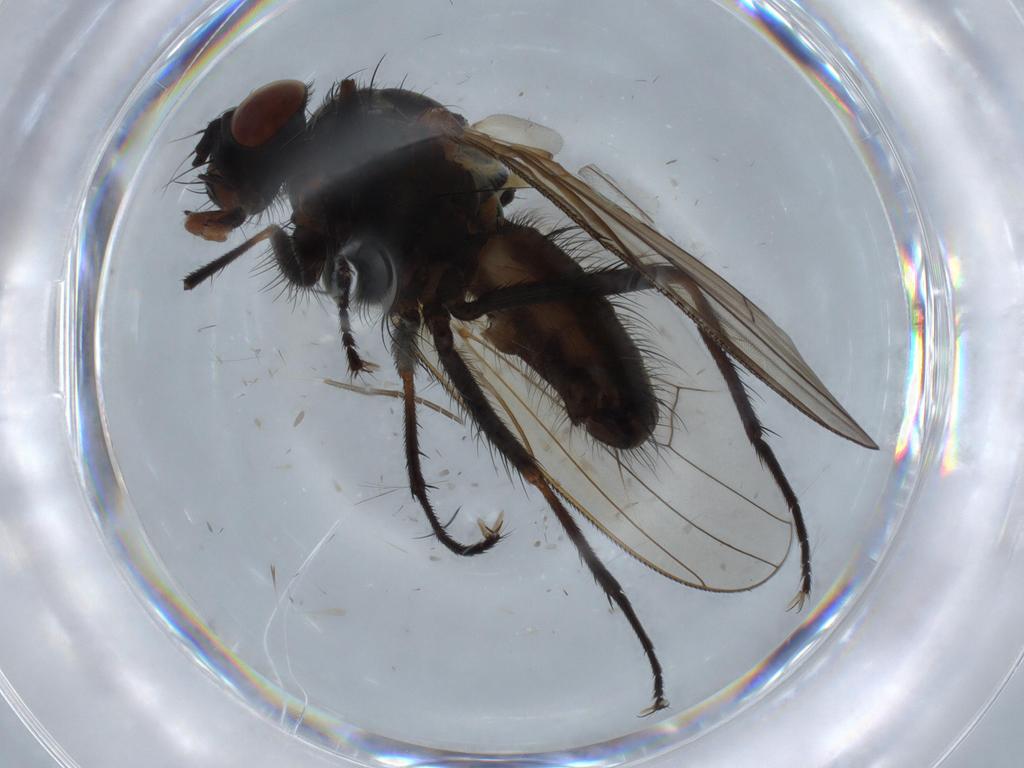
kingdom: Animalia
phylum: Arthropoda
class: Insecta
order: Diptera
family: Anthomyiidae
